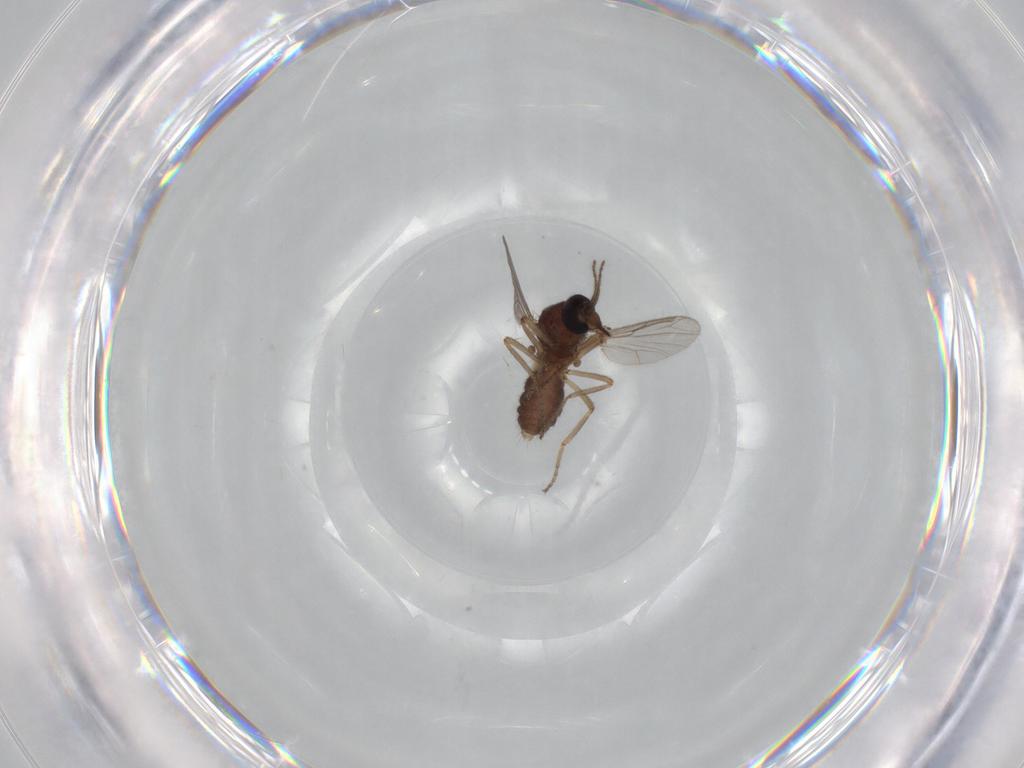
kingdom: Animalia
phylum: Arthropoda
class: Insecta
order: Diptera
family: Ceratopogonidae
